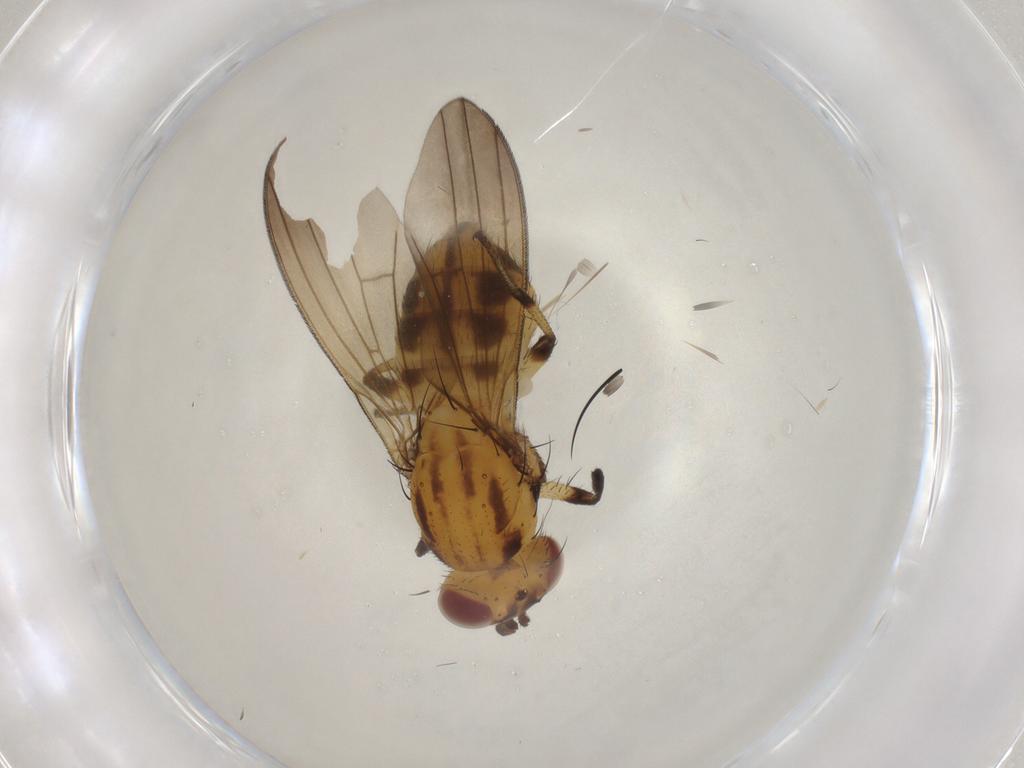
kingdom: Animalia
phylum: Arthropoda
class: Insecta
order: Diptera
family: Lauxaniidae
